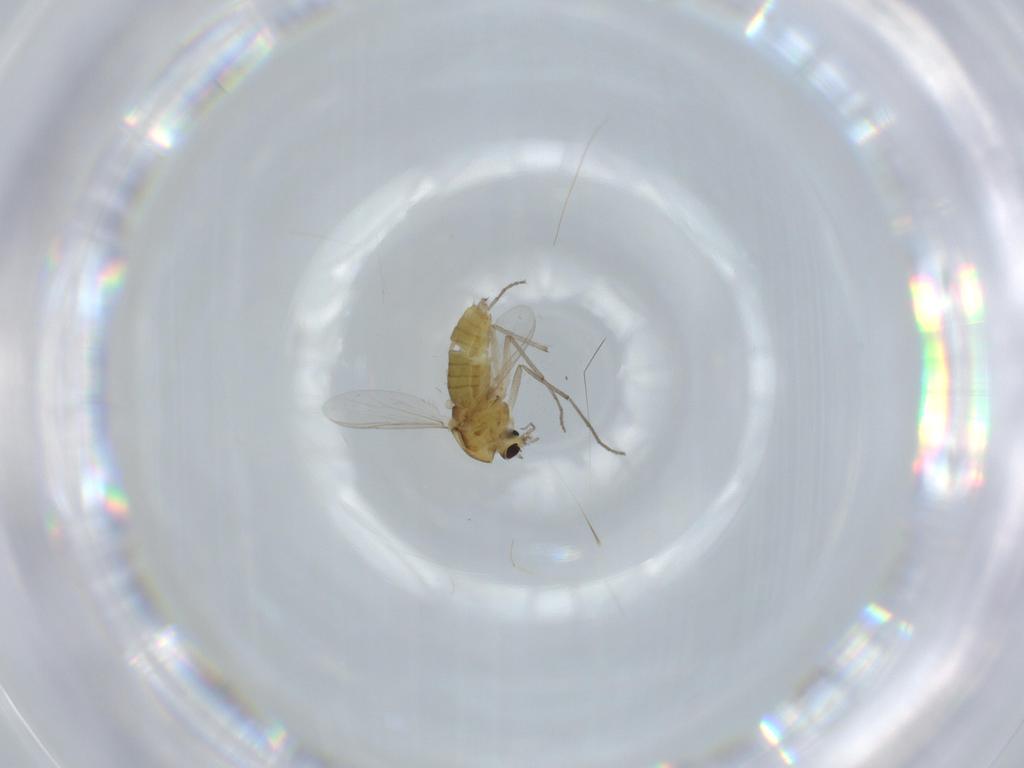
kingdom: Animalia
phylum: Arthropoda
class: Insecta
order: Diptera
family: Chironomidae
